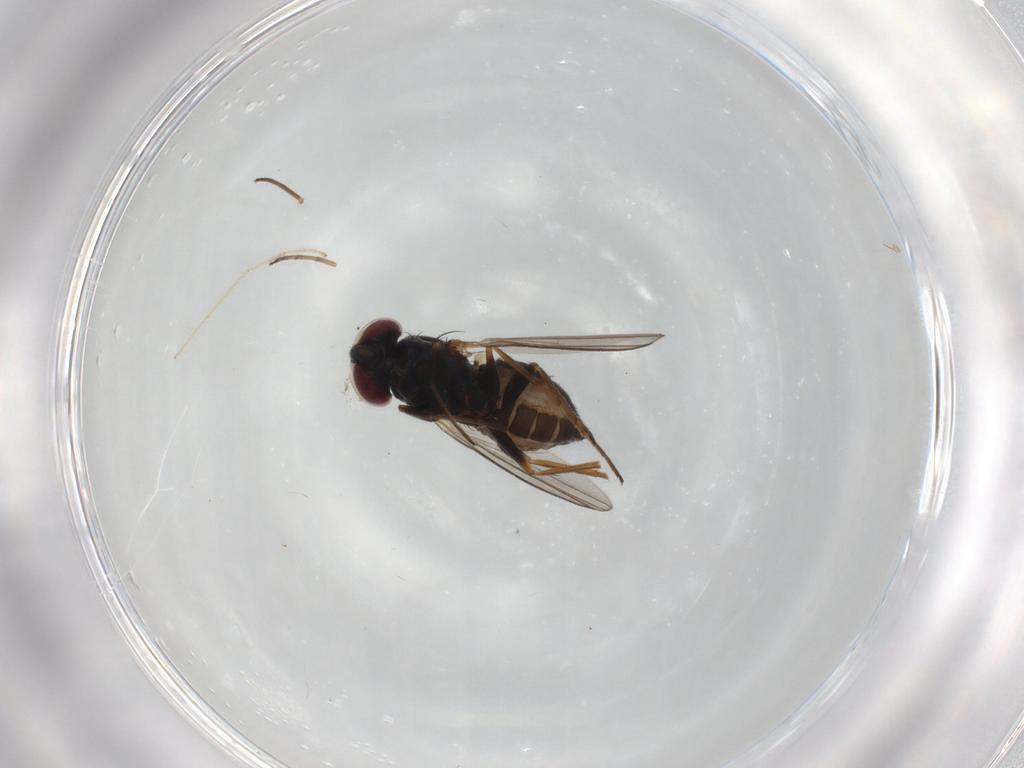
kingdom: Animalia
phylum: Arthropoda
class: Insecta
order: Diptera
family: Dolichopodidae
